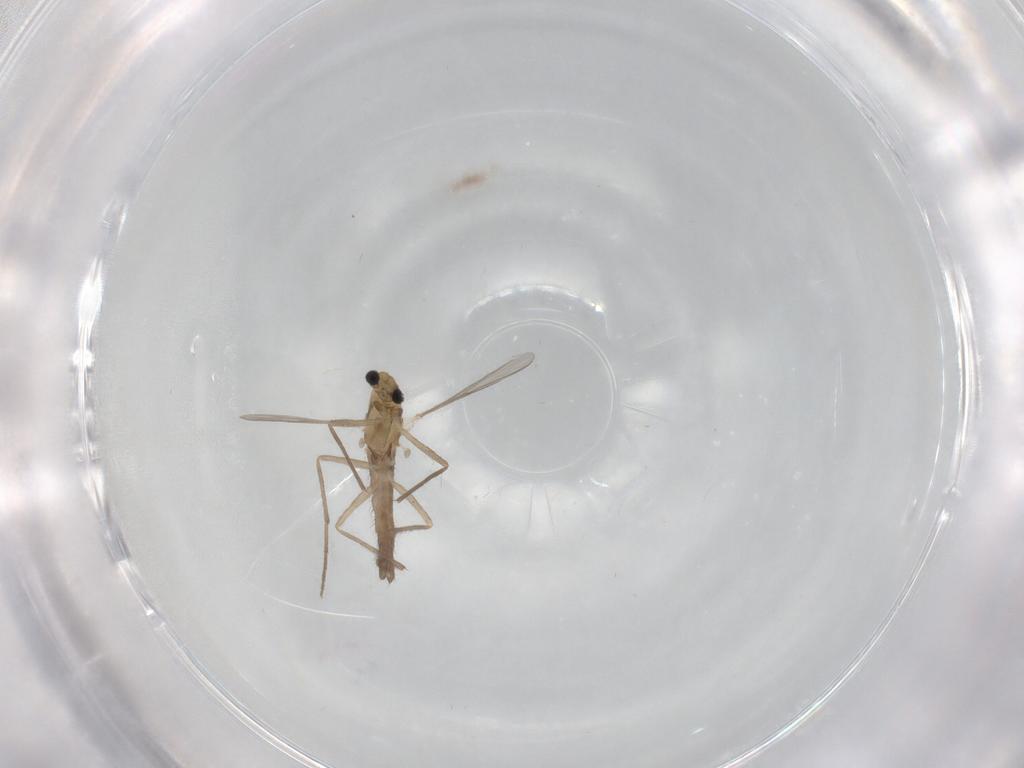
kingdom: Animalia
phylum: Arthropoda
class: Insecta
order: Diptera
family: Chironomidae
